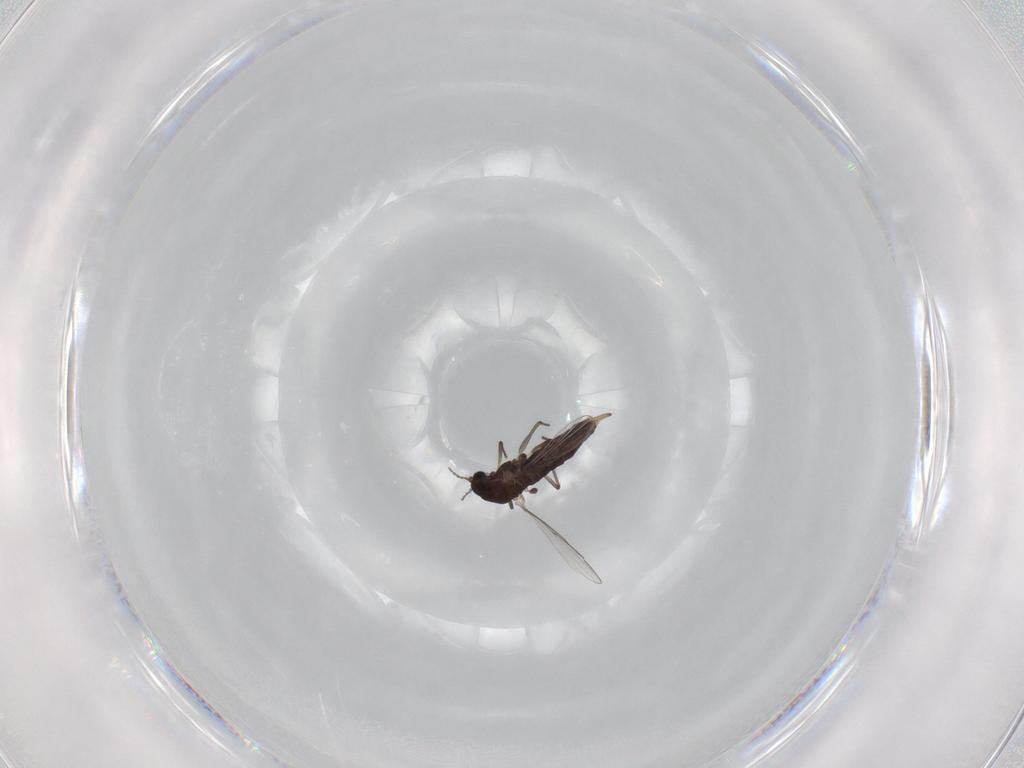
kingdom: Animalia
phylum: Arthropoda
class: Insecta
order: Diptera
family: Chironomidae
